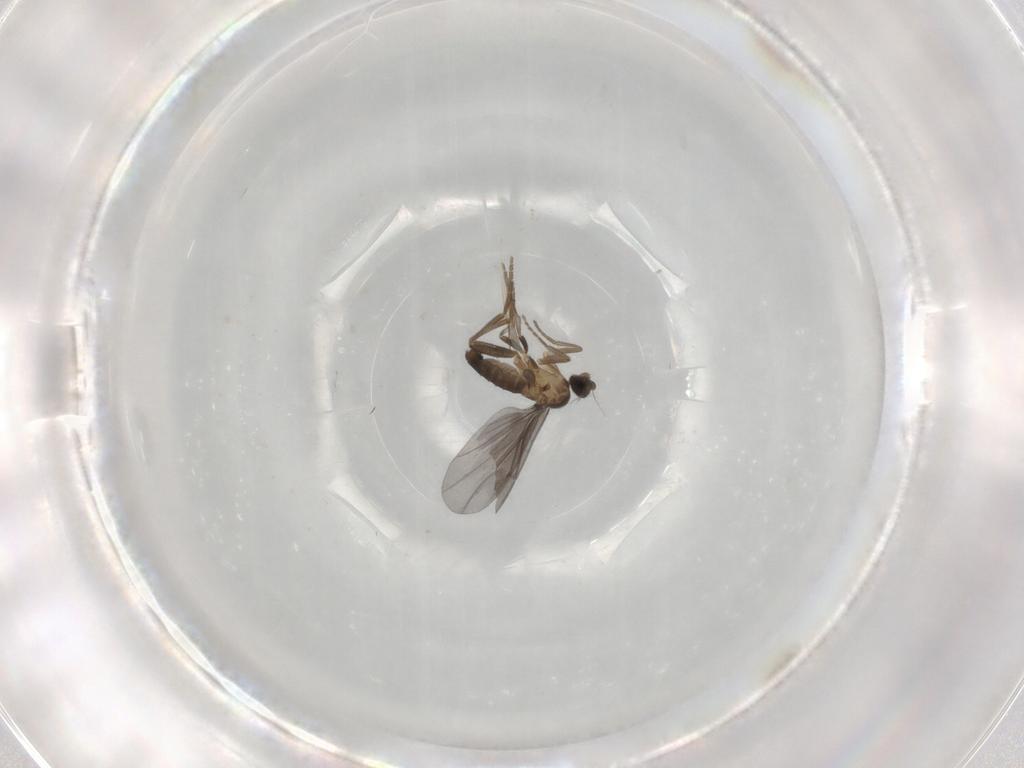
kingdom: Animalia
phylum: Arthropoda
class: Insecta
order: Diptera
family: Phoridae
